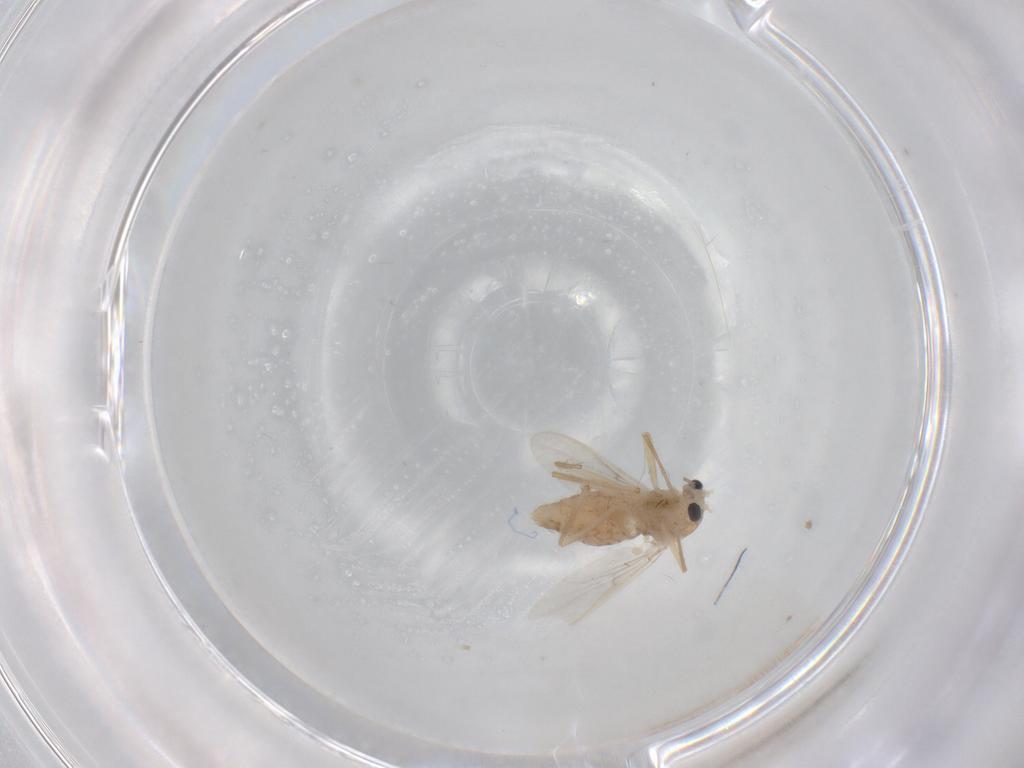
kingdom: Animalia
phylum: Arthropoda
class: Insecta
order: Diptera
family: Chironomidae
